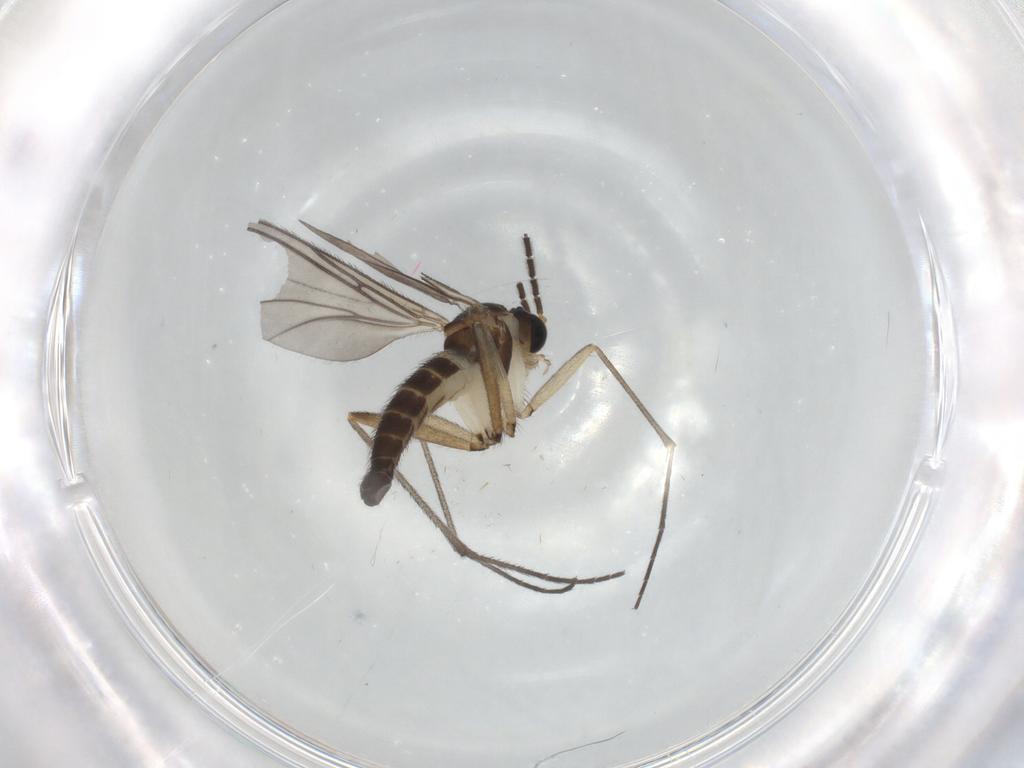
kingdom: Animalia
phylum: Arthropoda
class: Insecta
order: Diptera
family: Sciaridae
